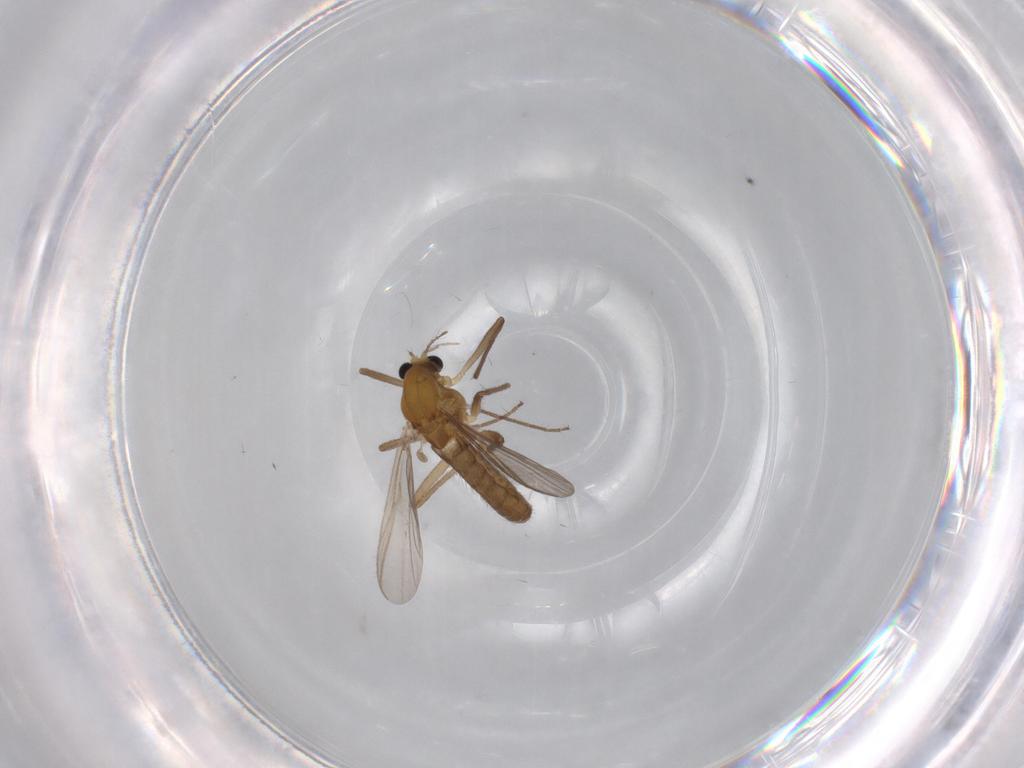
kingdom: Animalia
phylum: Arthropoda
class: Insecta
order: Diptera
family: Chironomidae
